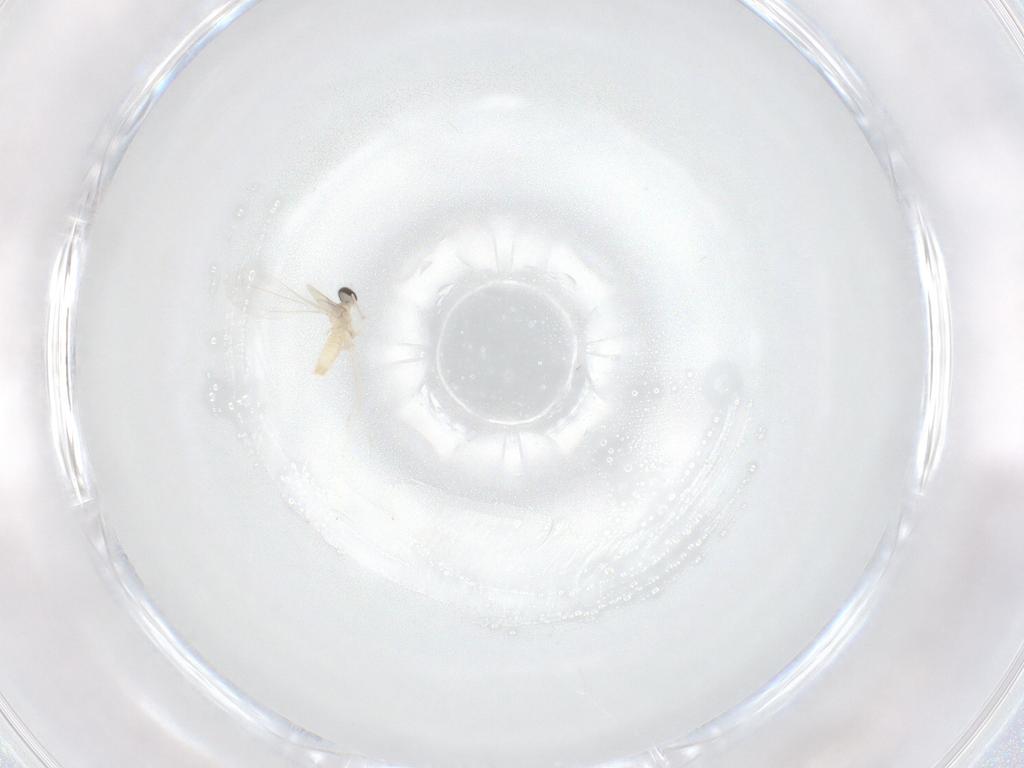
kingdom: Animalia
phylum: Arthropoda
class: Insecta
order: Diptera
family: Cecidomyiidae
